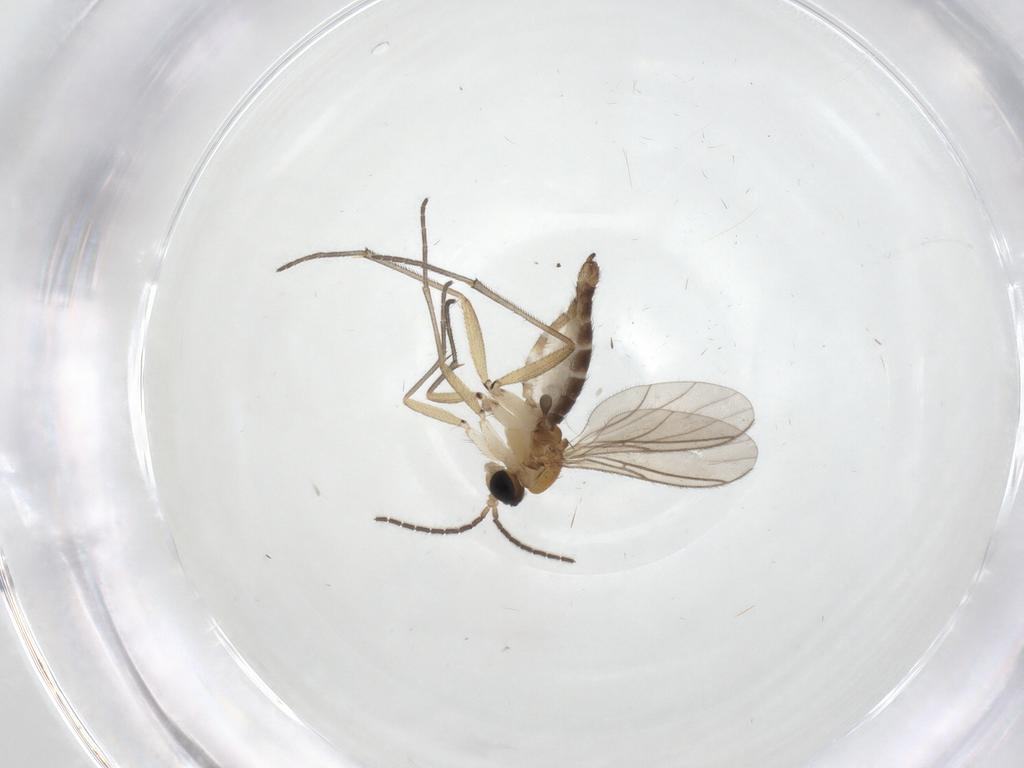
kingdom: Animalia
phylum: Arthropoda
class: Insecta
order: Diptera
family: Sciaridae
